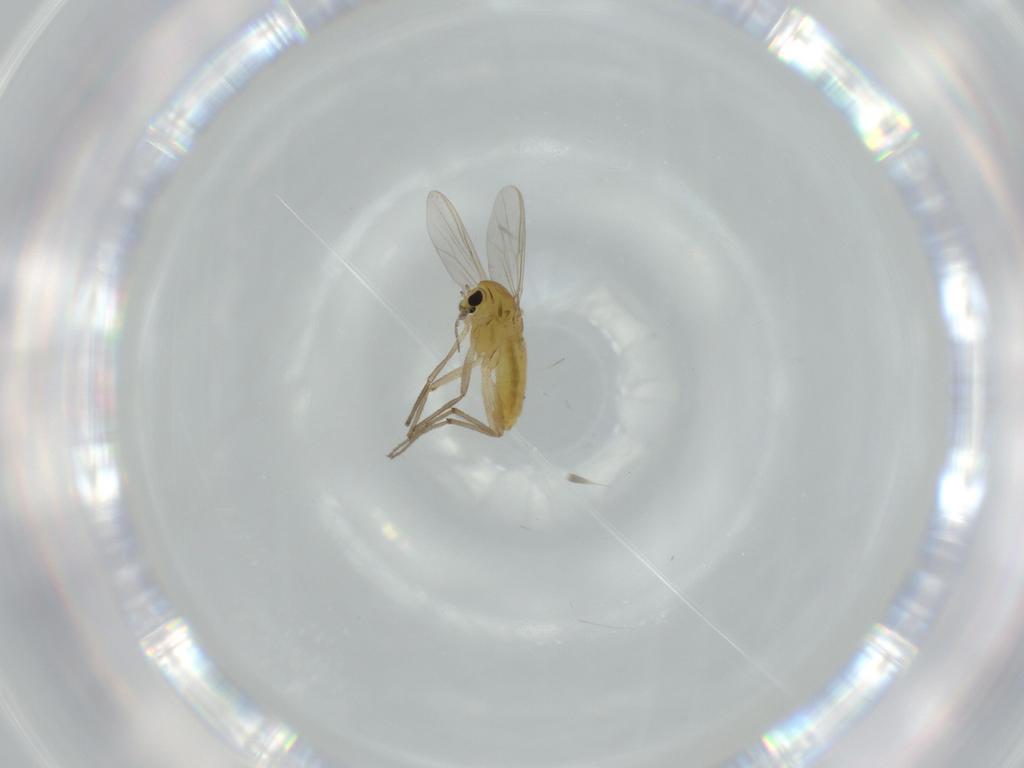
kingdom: Animalia
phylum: Arthropoda
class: Insecta
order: Diptera
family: Chironomidae
